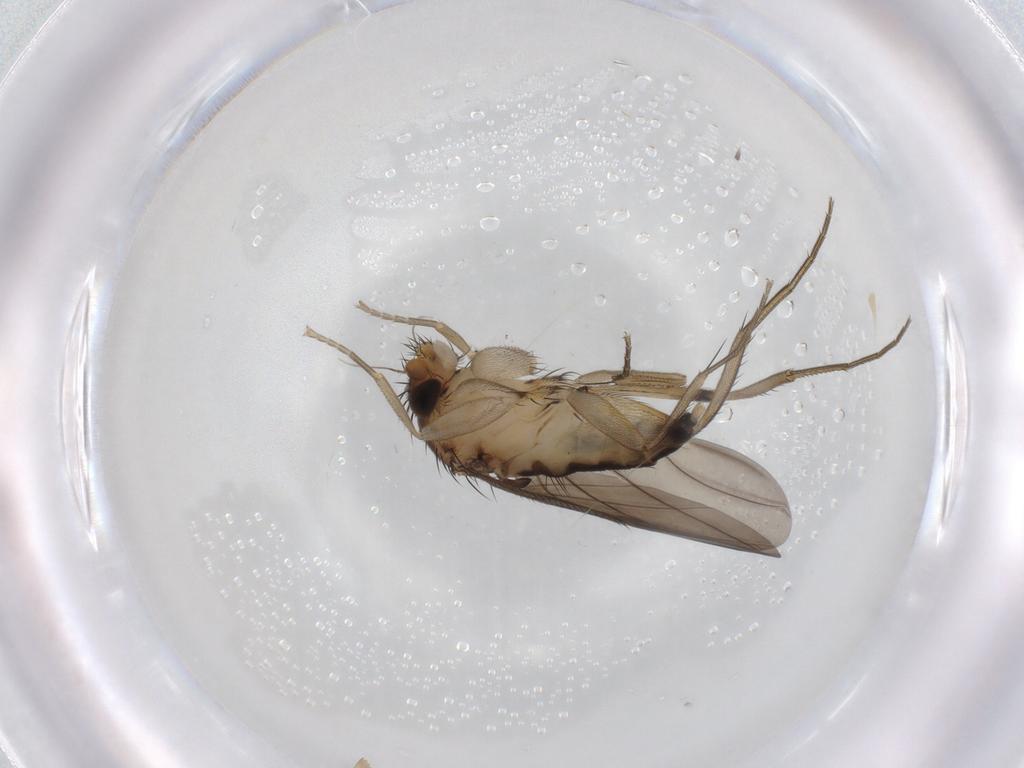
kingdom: Animalia
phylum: Arthropoda
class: Insecta
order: Diptera
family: Phoridae
